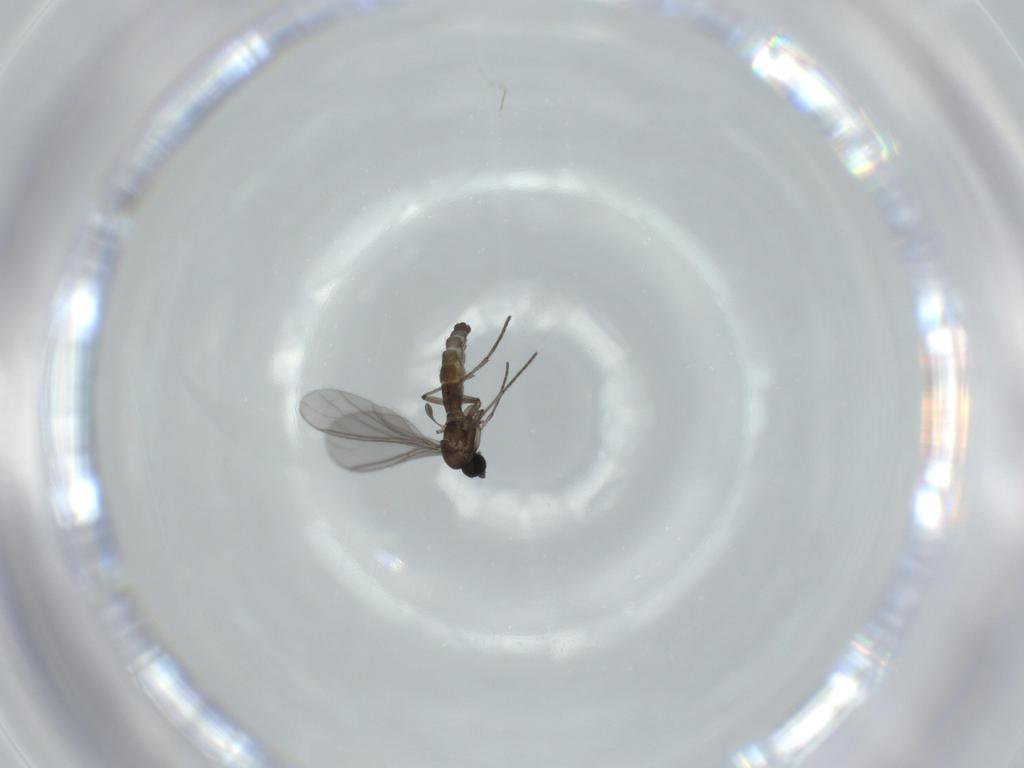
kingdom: Animalia
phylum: Arthropoda
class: Insecta
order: Diptera
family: Sciaridae
